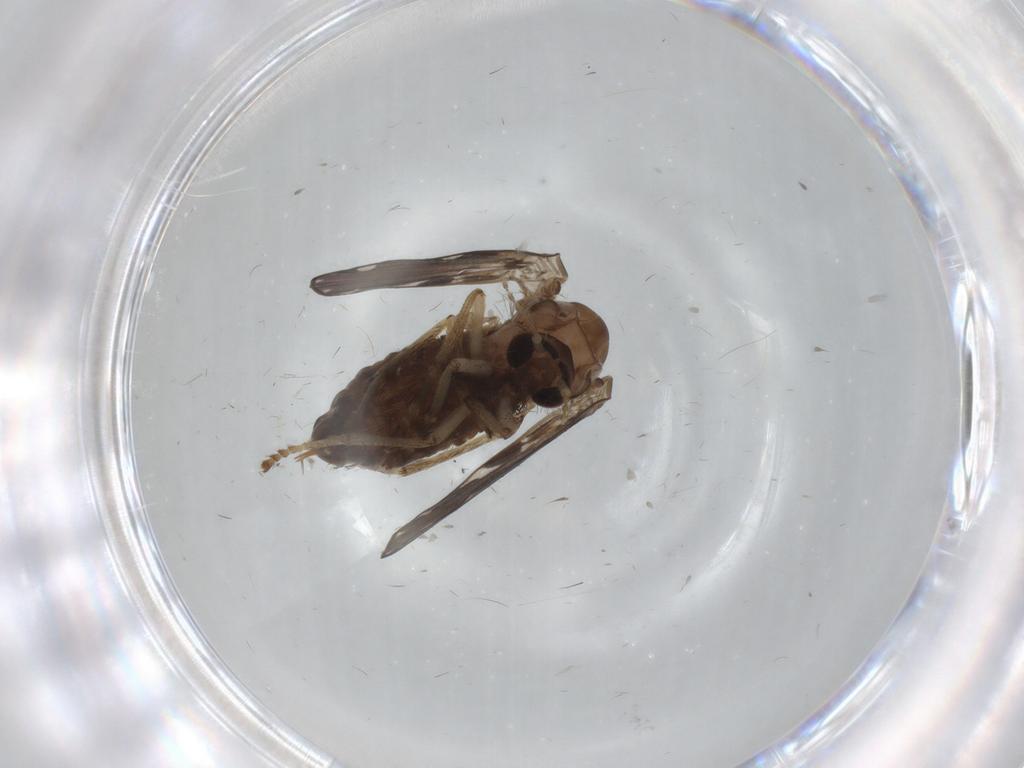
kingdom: Animalia
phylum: Arthropoda
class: Insecta
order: Diptera
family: Psychodidae
